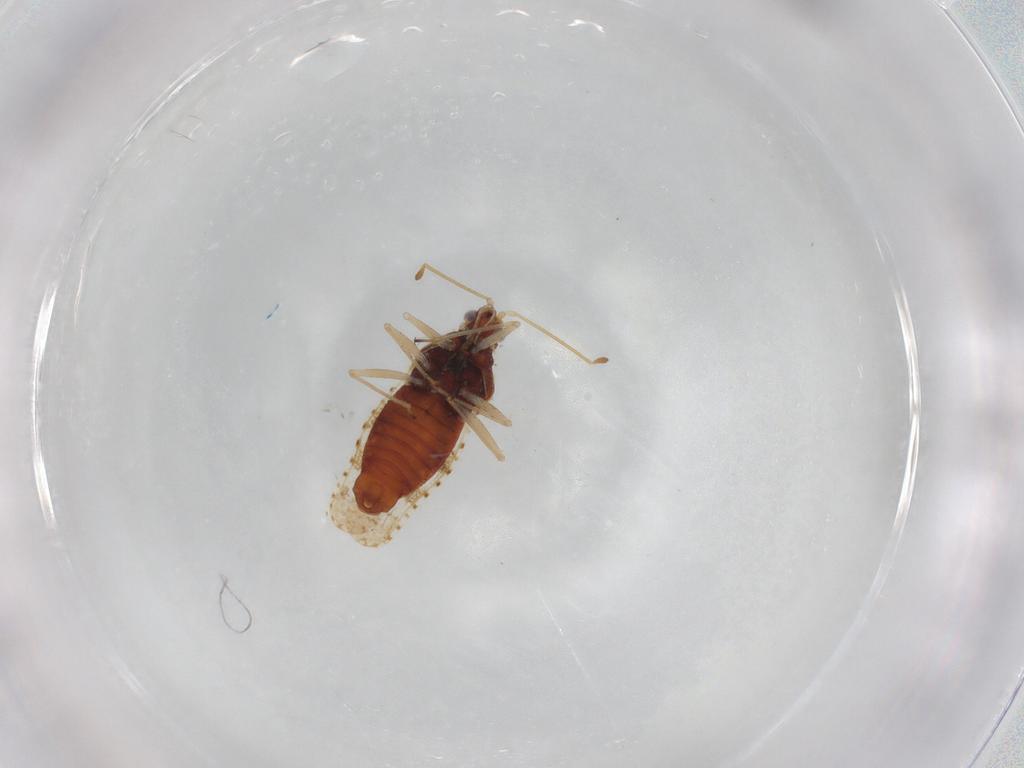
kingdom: Animalia
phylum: Arthropoda
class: Insecta
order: Hemiptera
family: Tingidae
